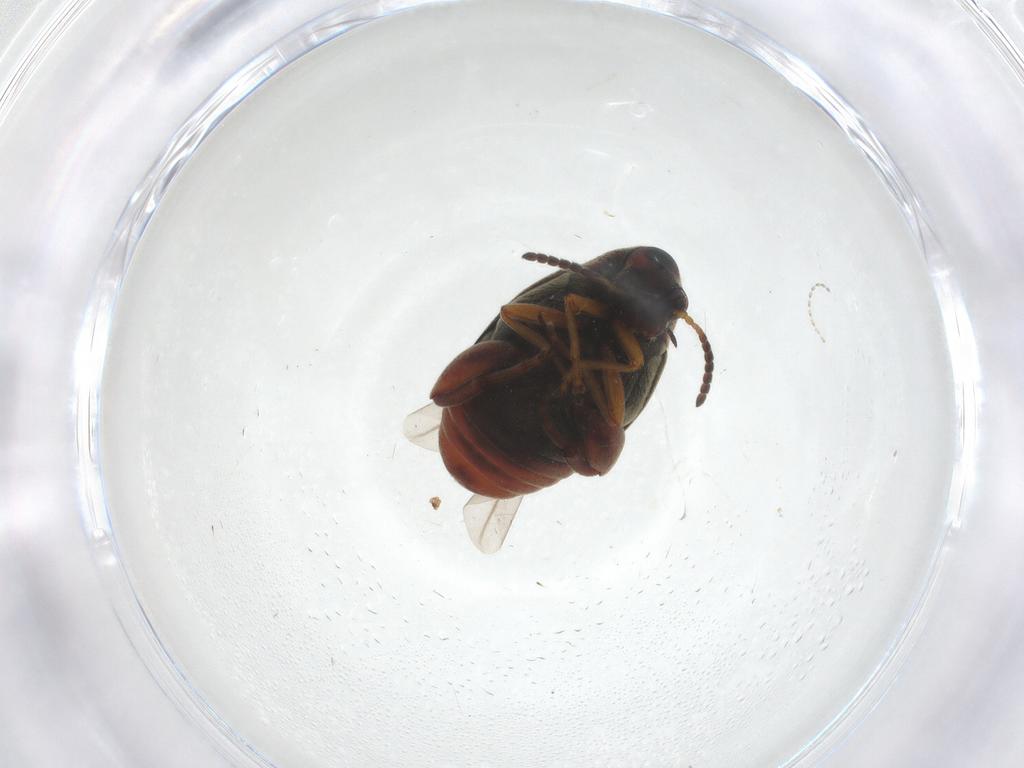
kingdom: Animalia
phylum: Arthropoda
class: Insecta
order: Coleoptera
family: Chrysomelidae
